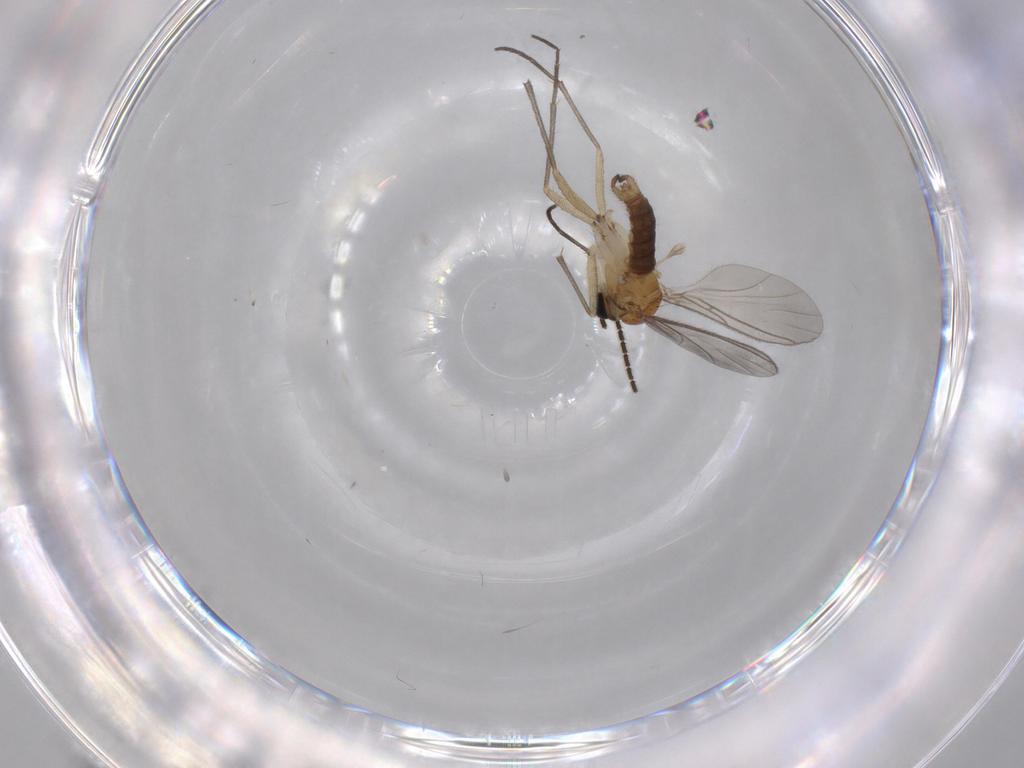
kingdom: Animalia
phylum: Arthropoda
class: Insecta
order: Diptera
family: Sciaridae
